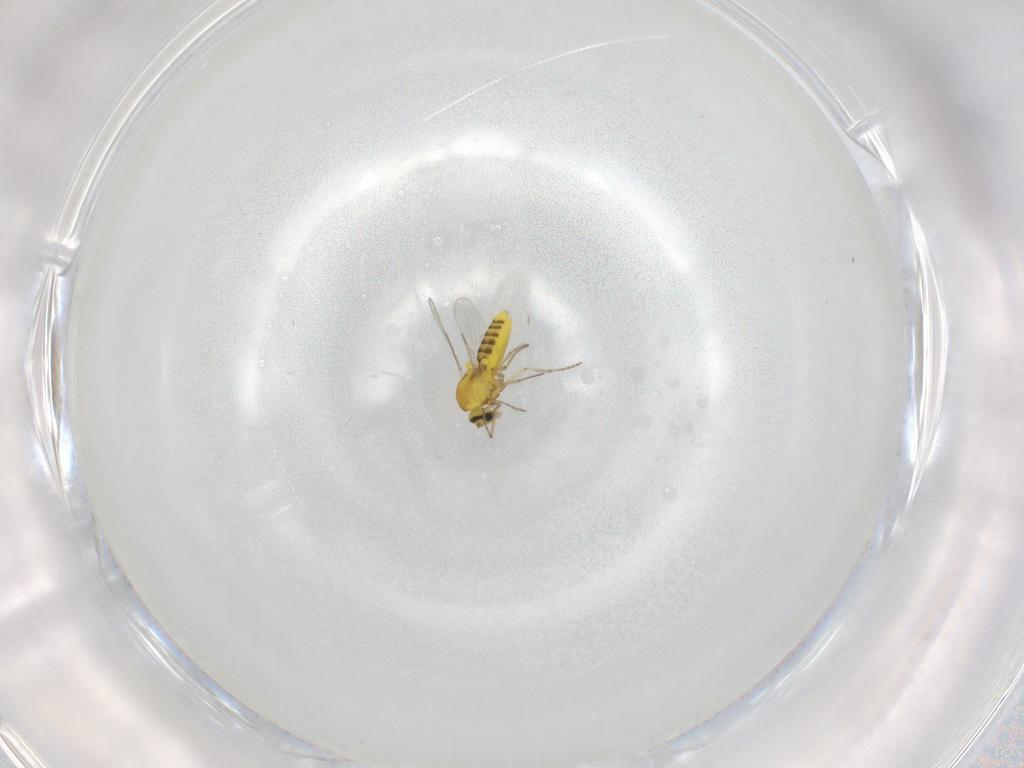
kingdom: Animalia
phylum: Arthropoda
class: Insecta
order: Diptera
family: Ceratopogonidae
